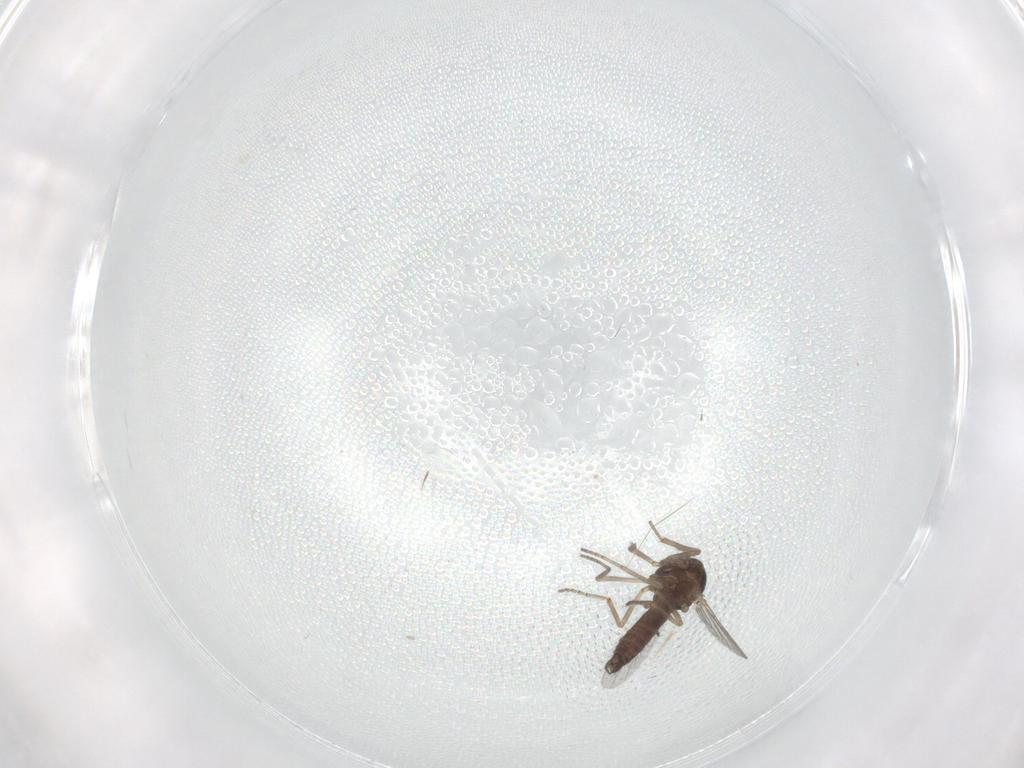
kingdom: Animalia
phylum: Arthropoda
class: Insecta
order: Diptera
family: Ceratopogonidae
